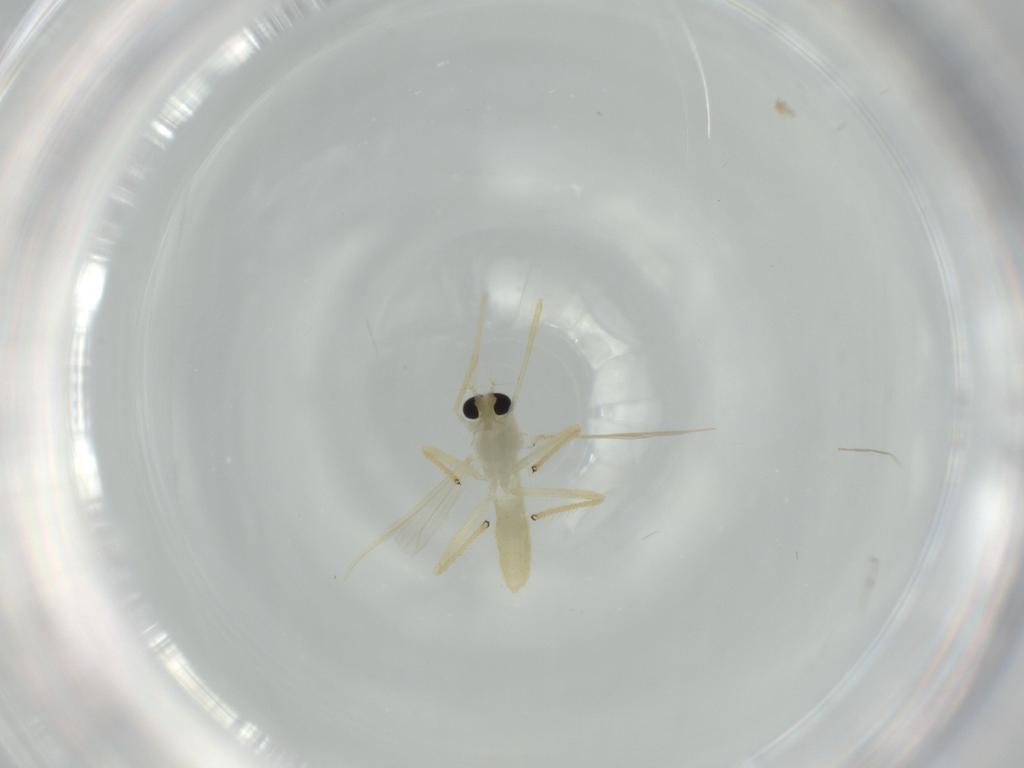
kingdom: Animalia
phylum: Arthropoda
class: Insecta
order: Diptera
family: Chironomidae
